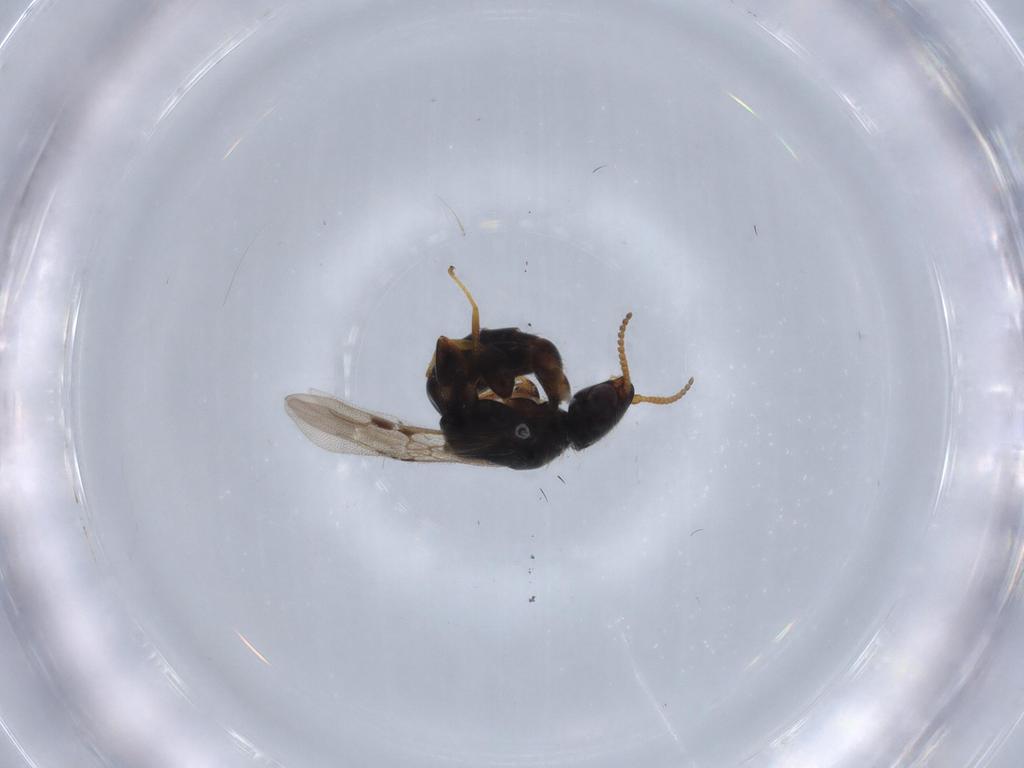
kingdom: Animalia
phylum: Arthropoda
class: Insecta
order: Hymenoptera
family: Bethylidae
